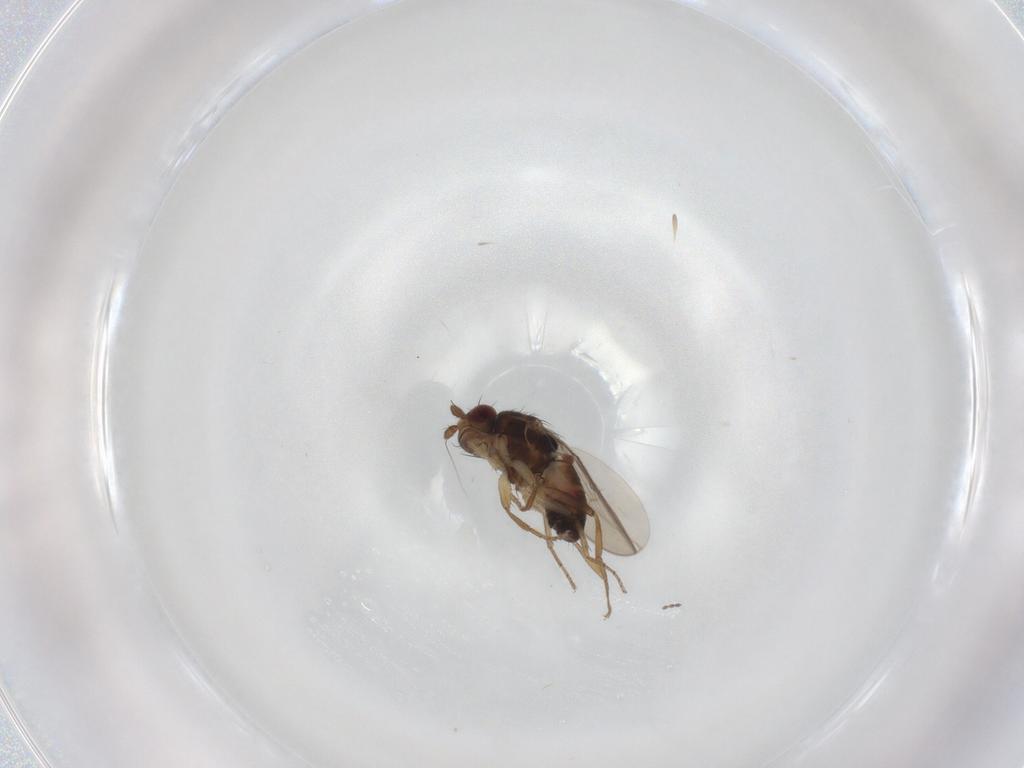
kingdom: Animalia
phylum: Arthropoda
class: Insecta
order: Diptera
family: Sphaeroceridae
